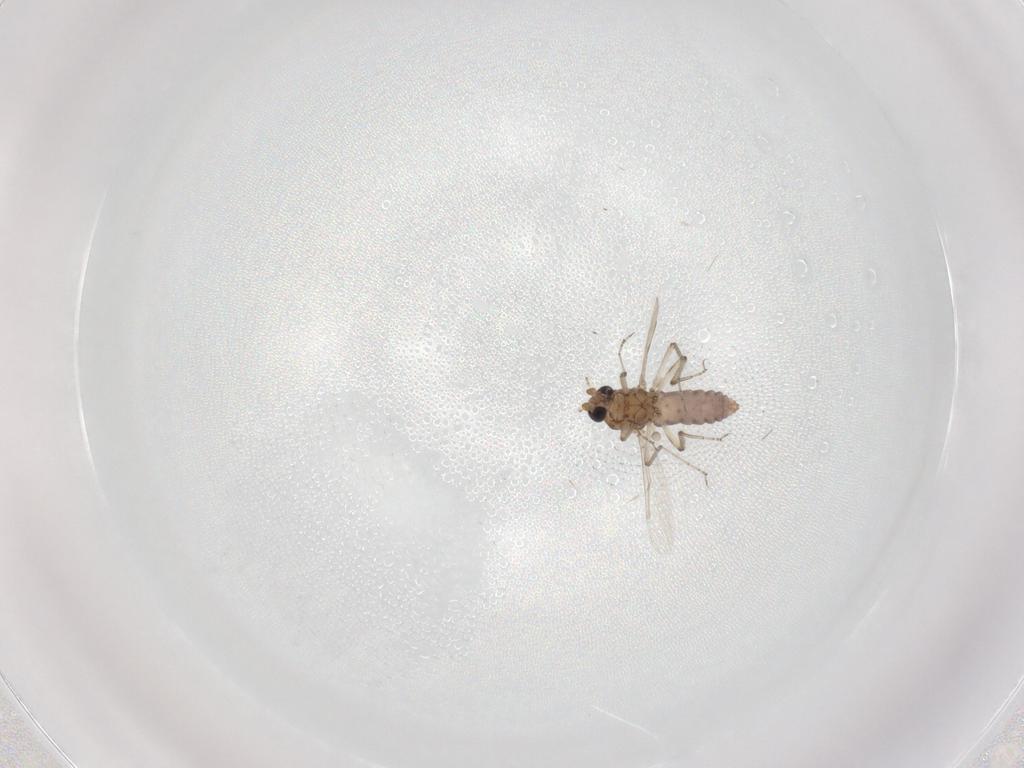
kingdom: Animalia
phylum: Arthropoda
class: Insecta
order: Diptera
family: Ceratopogonidae
